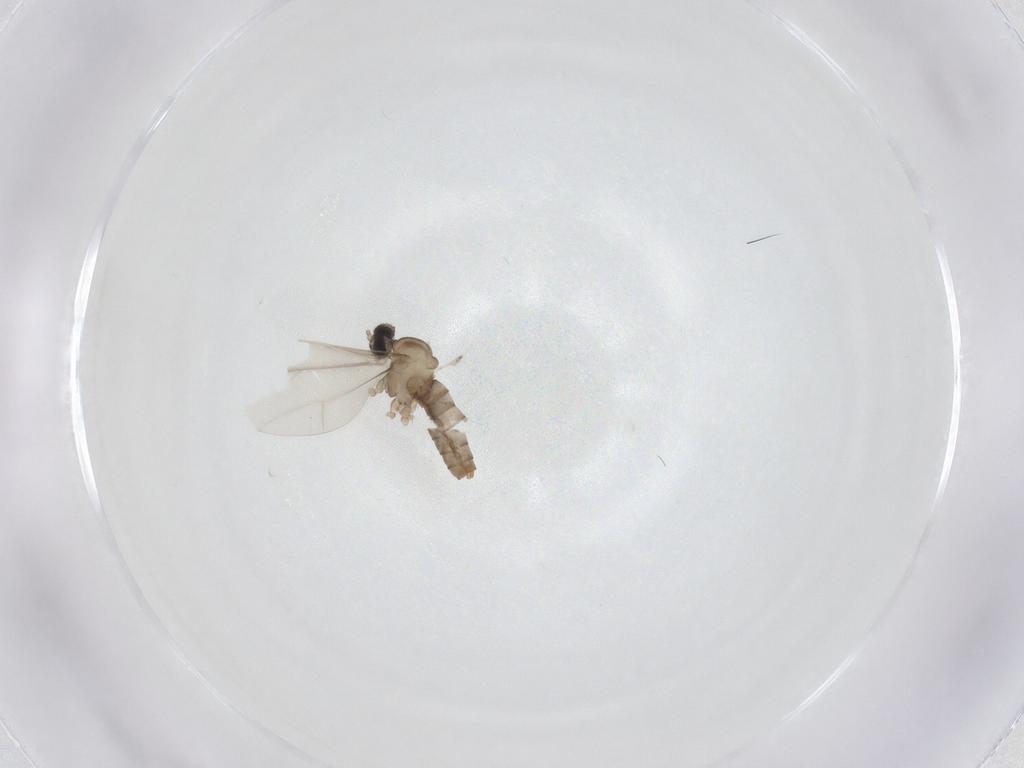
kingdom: Animalia
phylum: Arthropoda
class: Insecta
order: Diptera
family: Cecidomyiidae
